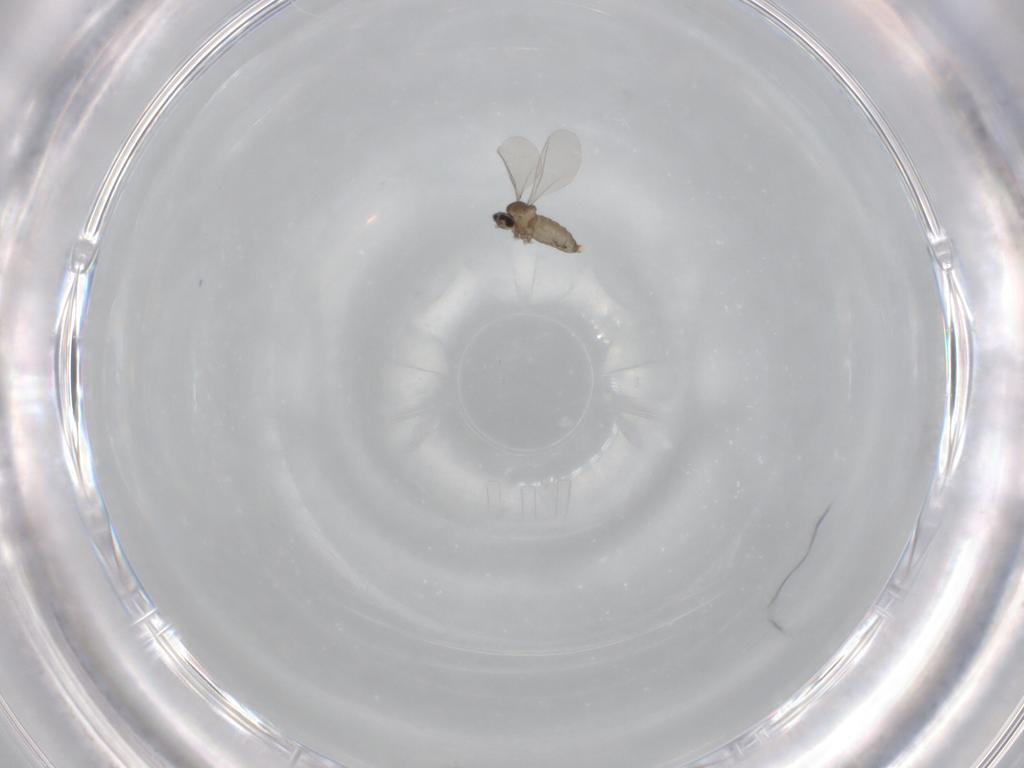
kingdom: Animalia
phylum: Arthropoda
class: Insecta
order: Diptera
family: Cecidomyiidae
